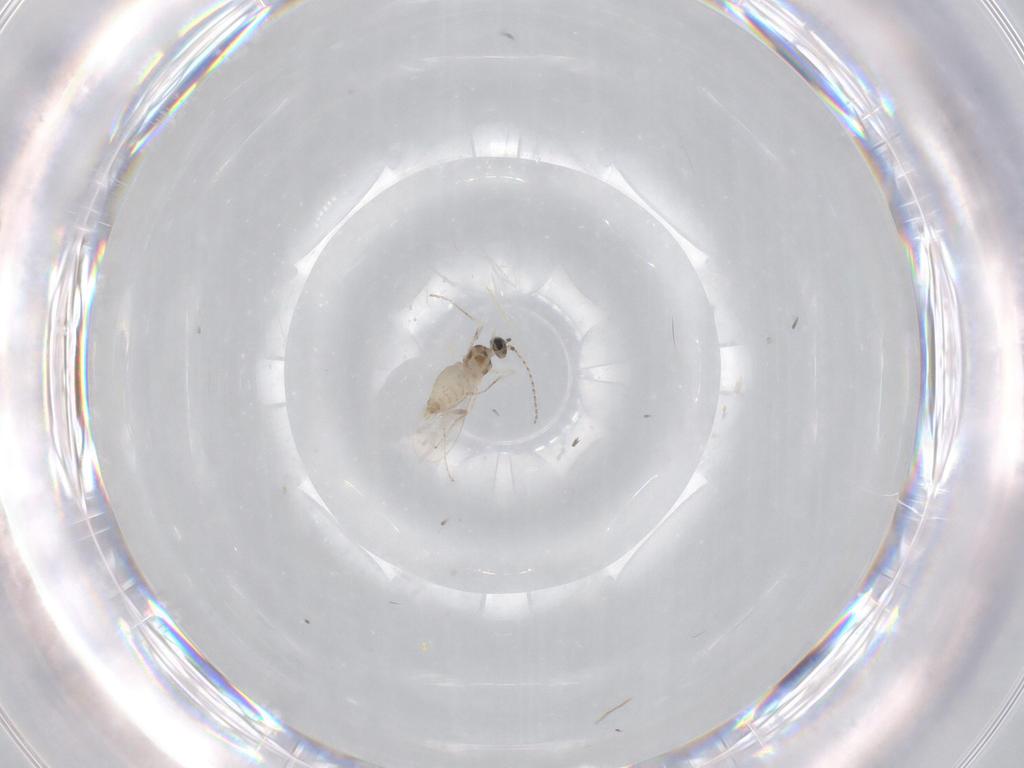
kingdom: Animalia
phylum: Arthropoda
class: Insecta
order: Diptera
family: Cecidomyiidae
